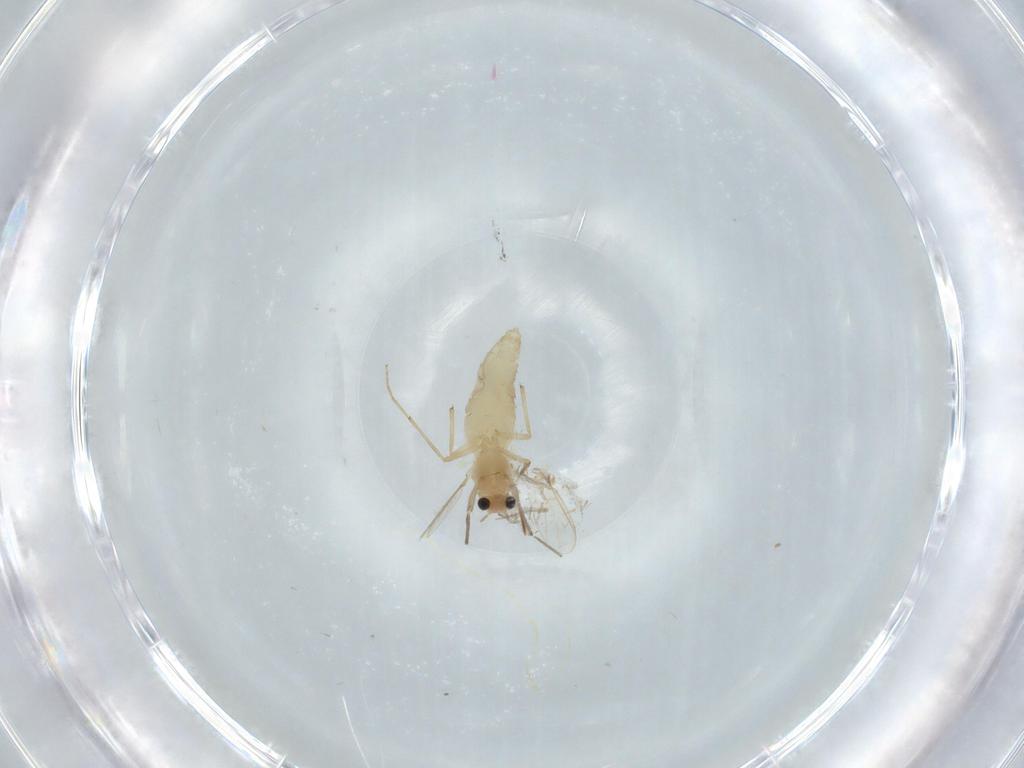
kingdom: Animalia
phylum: Arthropoda
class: Insecta
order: Diptera
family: Chironomidae
